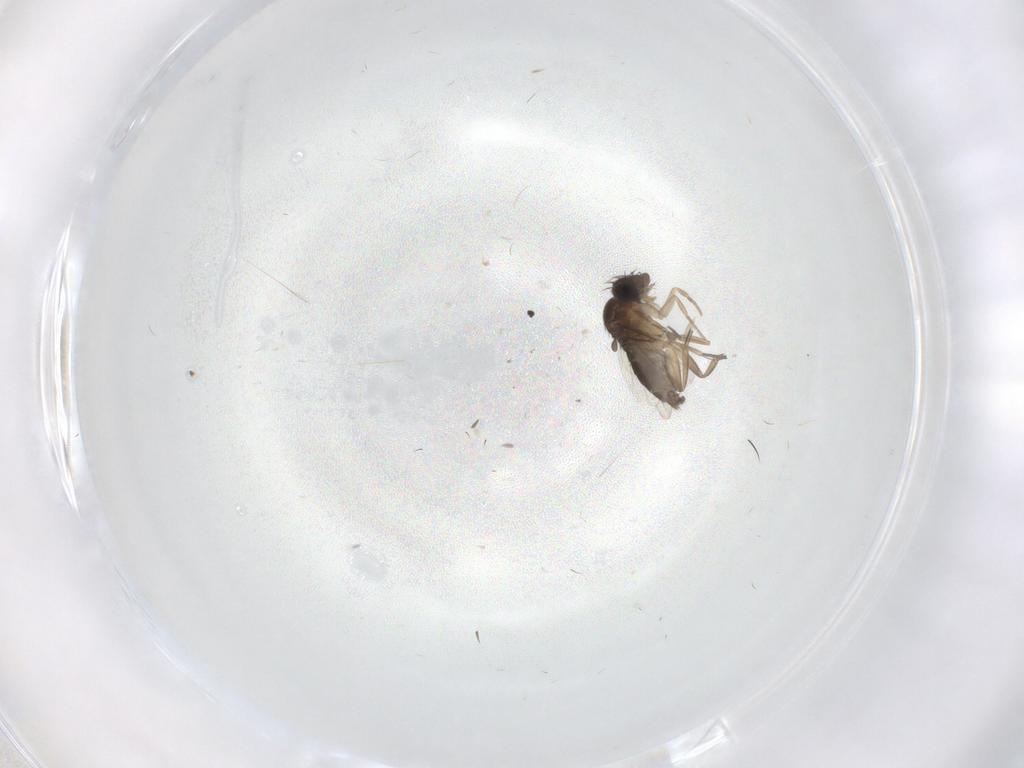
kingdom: Animalia
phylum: Arthropoda
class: Insecta
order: Diptera
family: Phoridae
